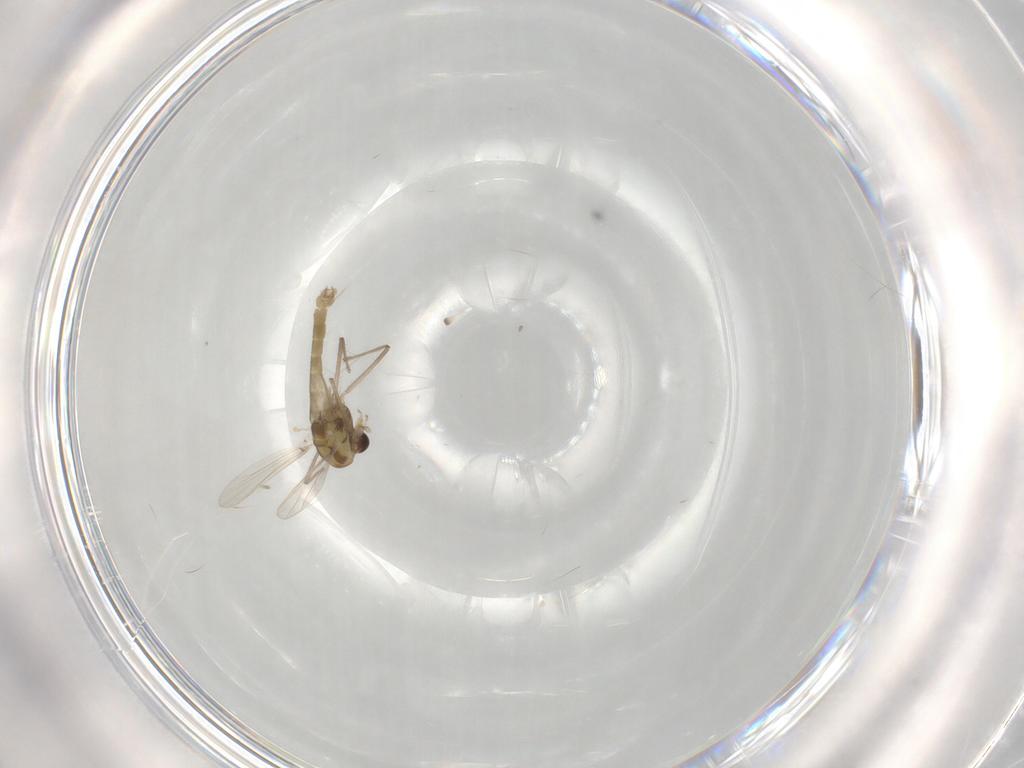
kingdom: Animalia
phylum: Arthropoda
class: Insecta
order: Diptera
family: Chironomidae
